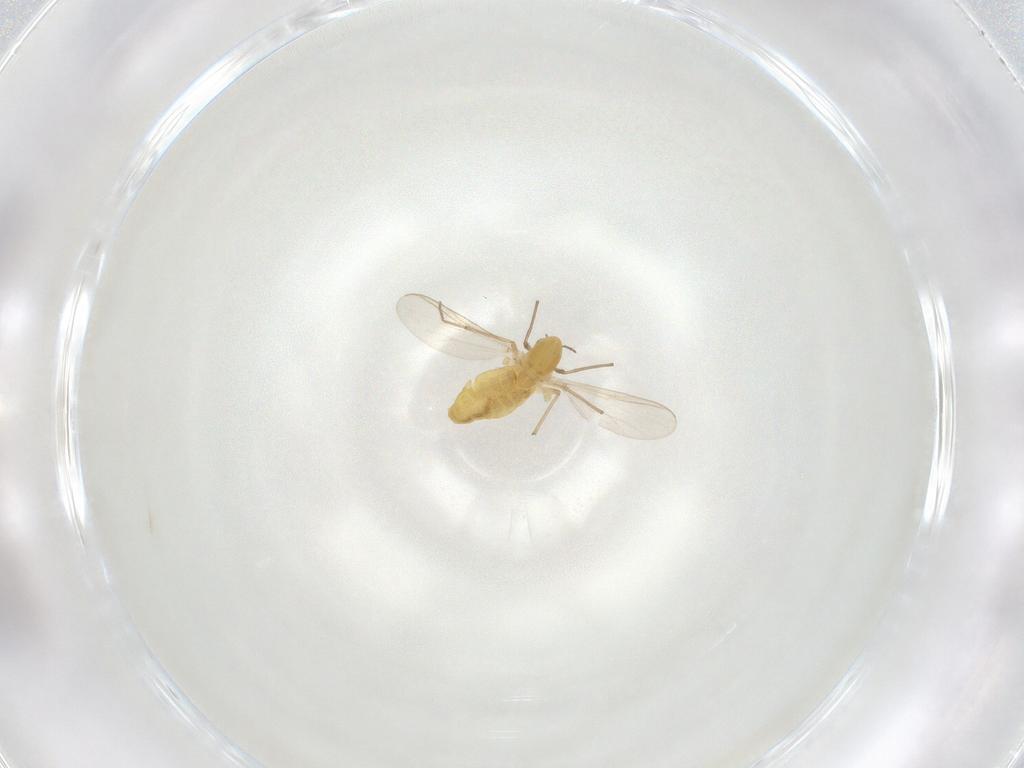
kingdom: Animalia
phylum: Arthropoda
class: Insecta
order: Diptera
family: Chironomidae
